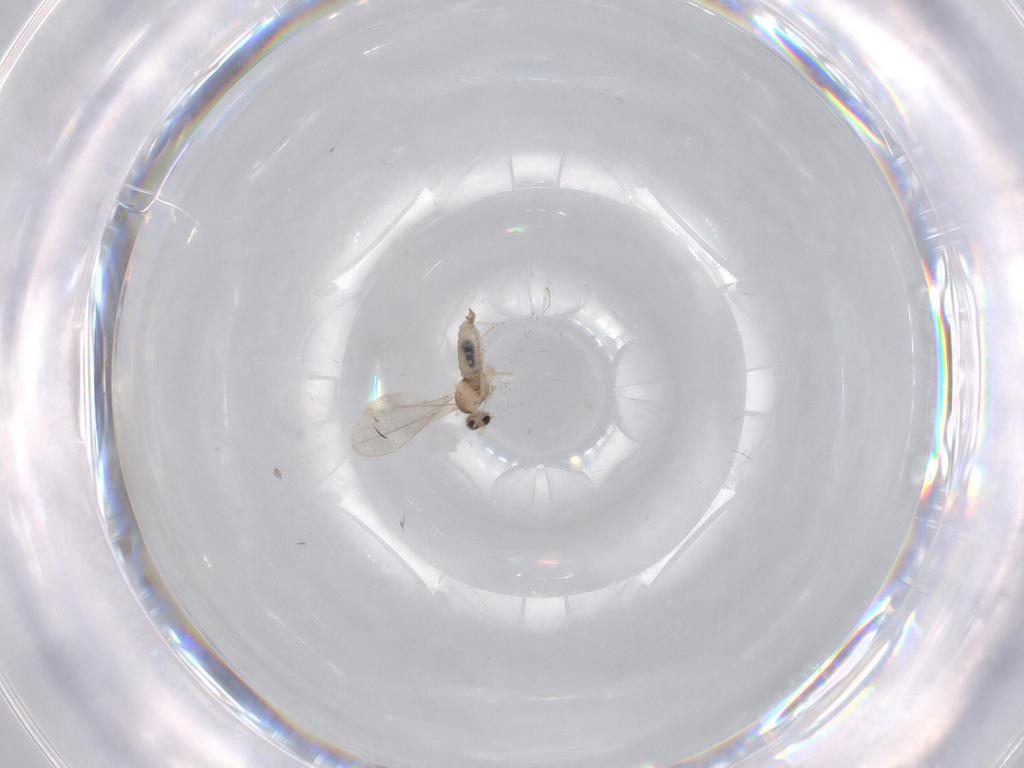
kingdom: Animalia
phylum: Arthropoda
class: Insecta
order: Diptera
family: Cecidomyiidae
